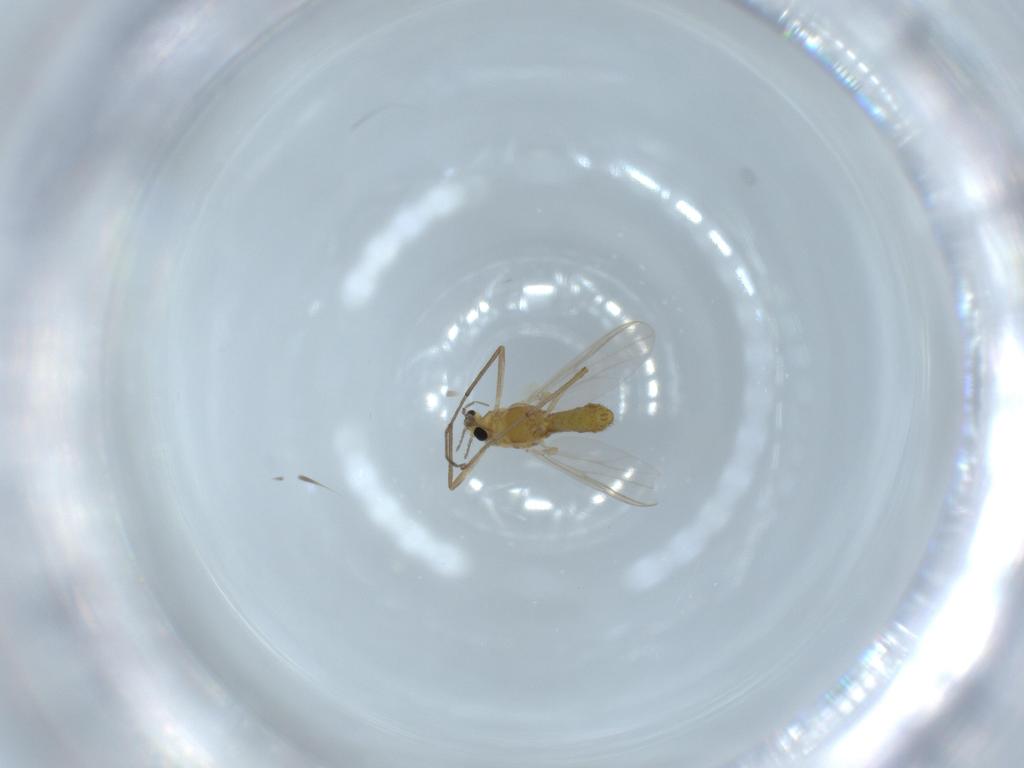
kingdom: Animalia
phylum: Arthropoda
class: Insecta
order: Diptera
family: Chironomidae
